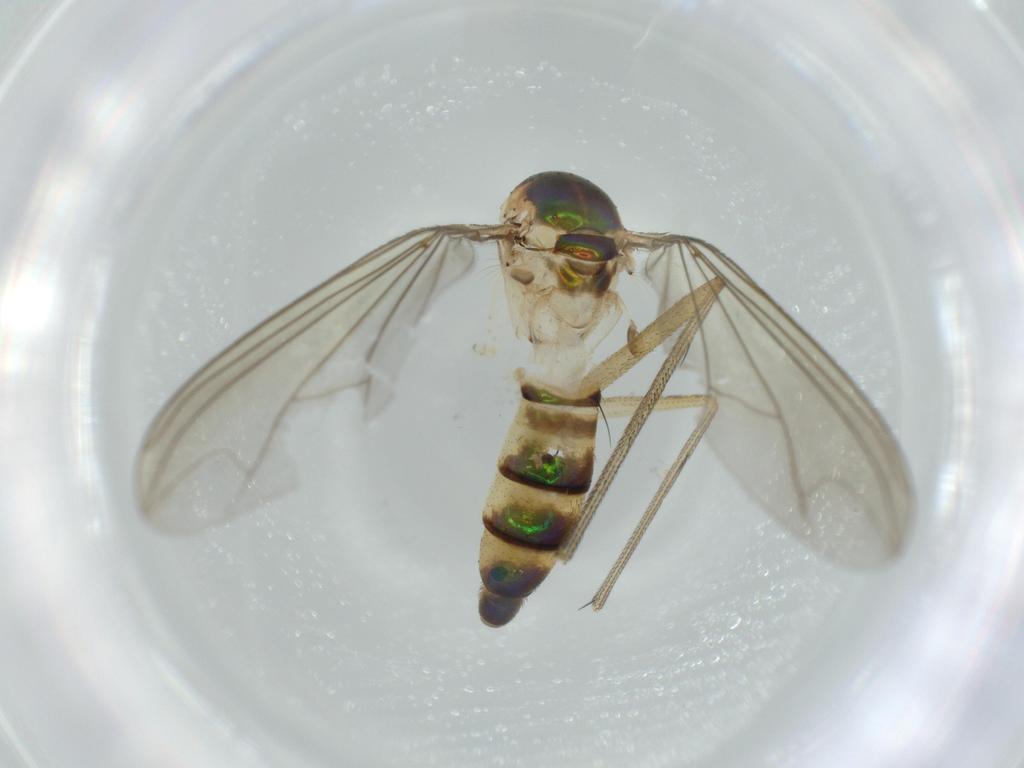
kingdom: Animalia
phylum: Arthropoda
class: Insecta
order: Diptera
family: Dolichopodidae
